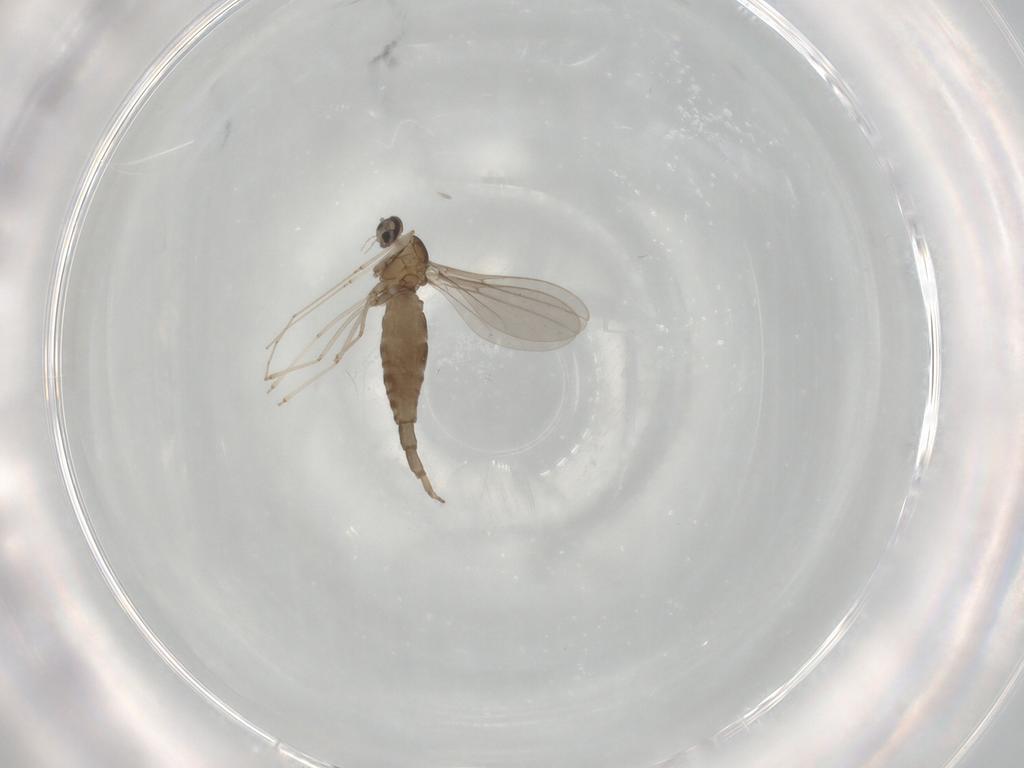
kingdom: Animalia
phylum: Arthropoda
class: Insecta
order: Diptera
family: Cecidomyiidae
